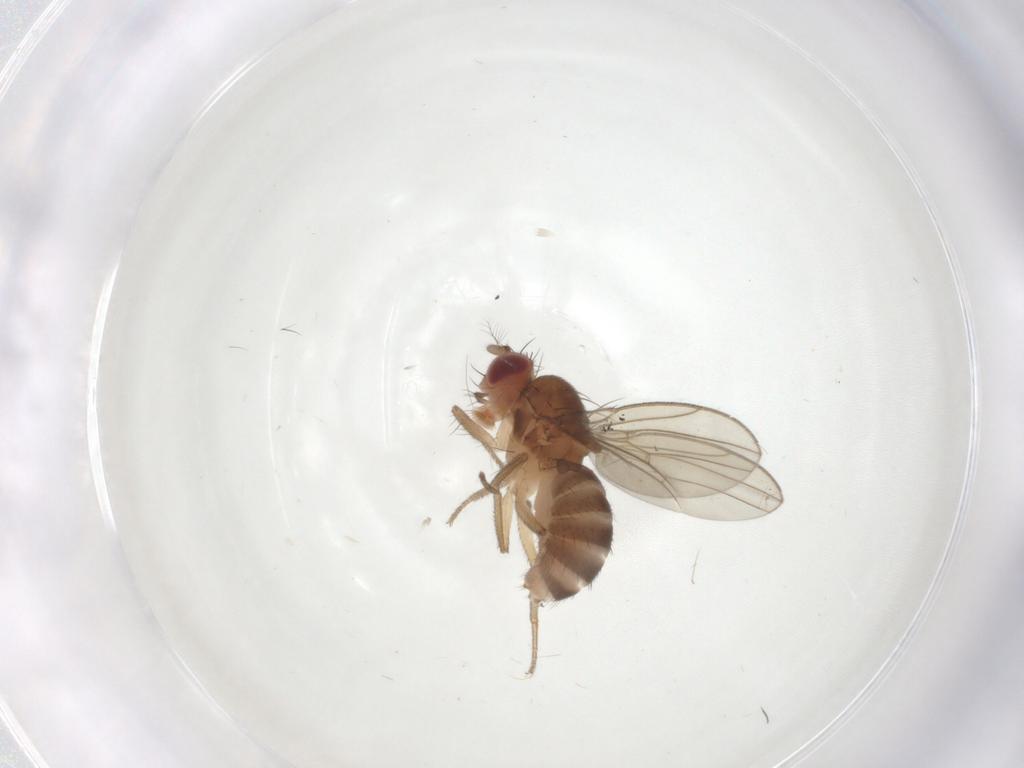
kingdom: Animalia
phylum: Arthropoda
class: Insecta
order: Diptera
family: Drosophilidae
